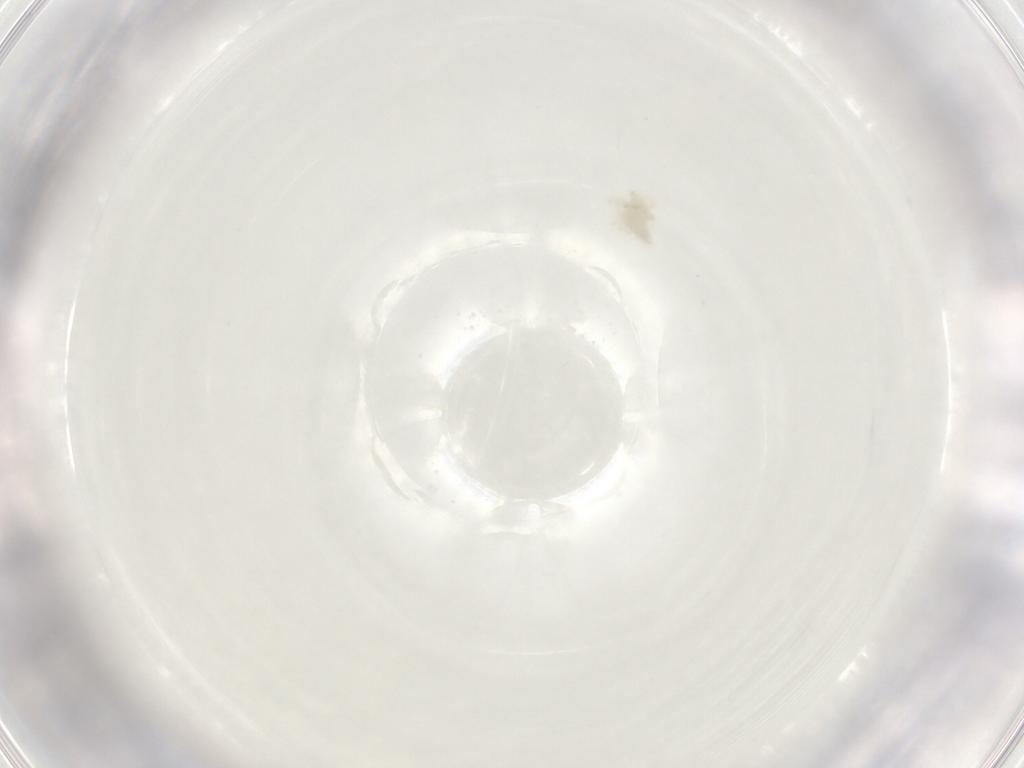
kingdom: Animalia
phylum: Arthropoda
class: Arachnida
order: Trombidiformes
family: Anystidae
